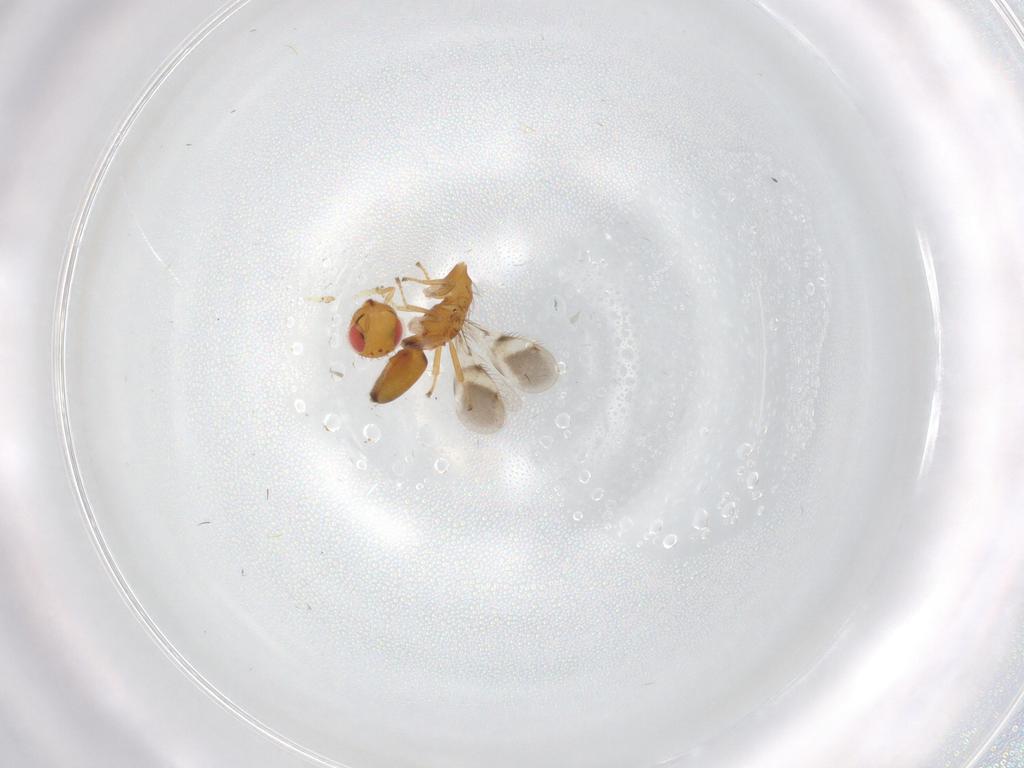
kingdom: Animalia
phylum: Arthropoda
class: Insecta
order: Hymenoptera
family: Eulophidae
